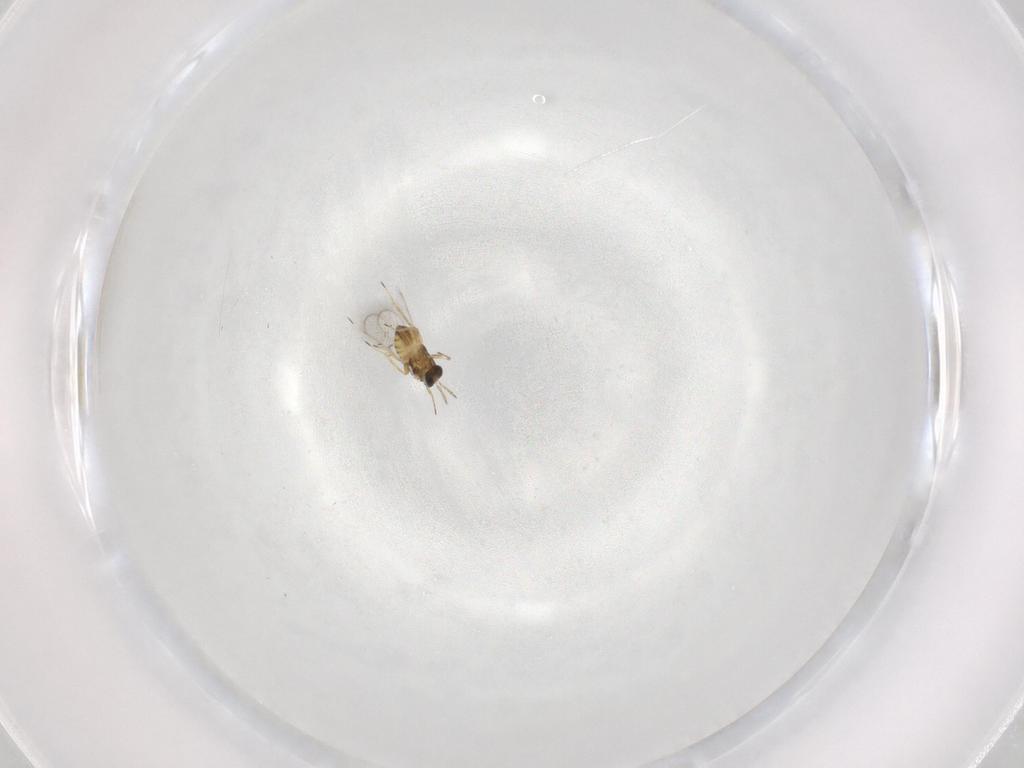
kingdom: Animalia
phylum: Arthropoda
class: Insecta
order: Hymenoptera
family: Trichogrammatidae
